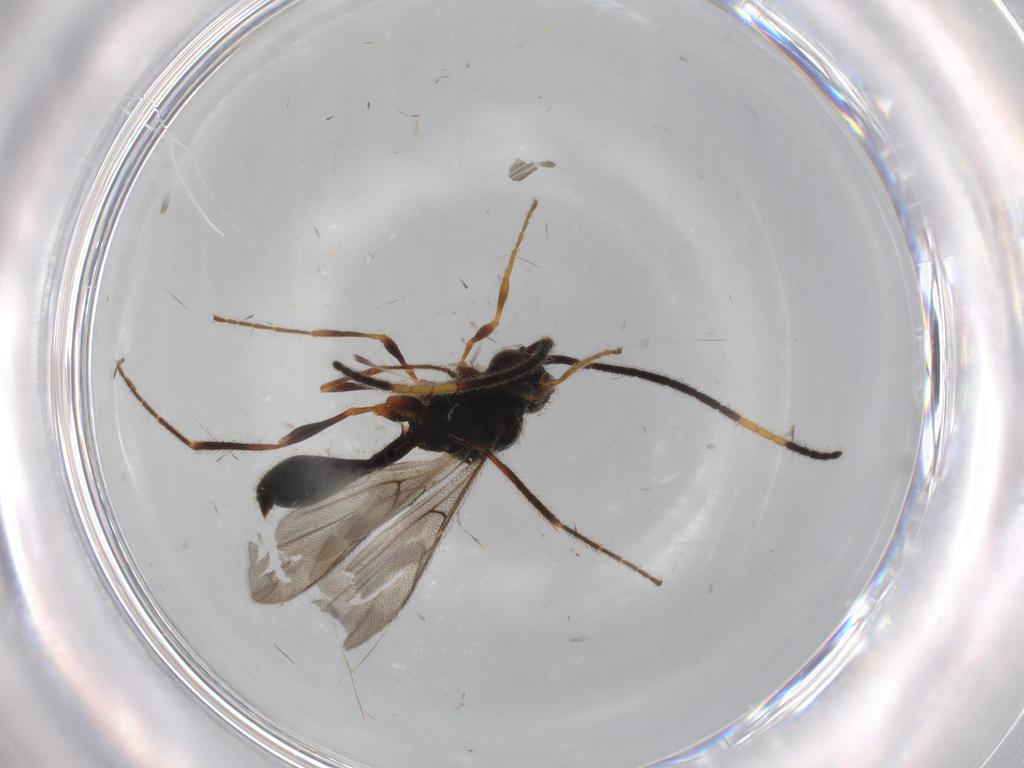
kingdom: Animalia
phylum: Arthropoda
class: Insecta
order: Hymenoptera
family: Diapriidae
